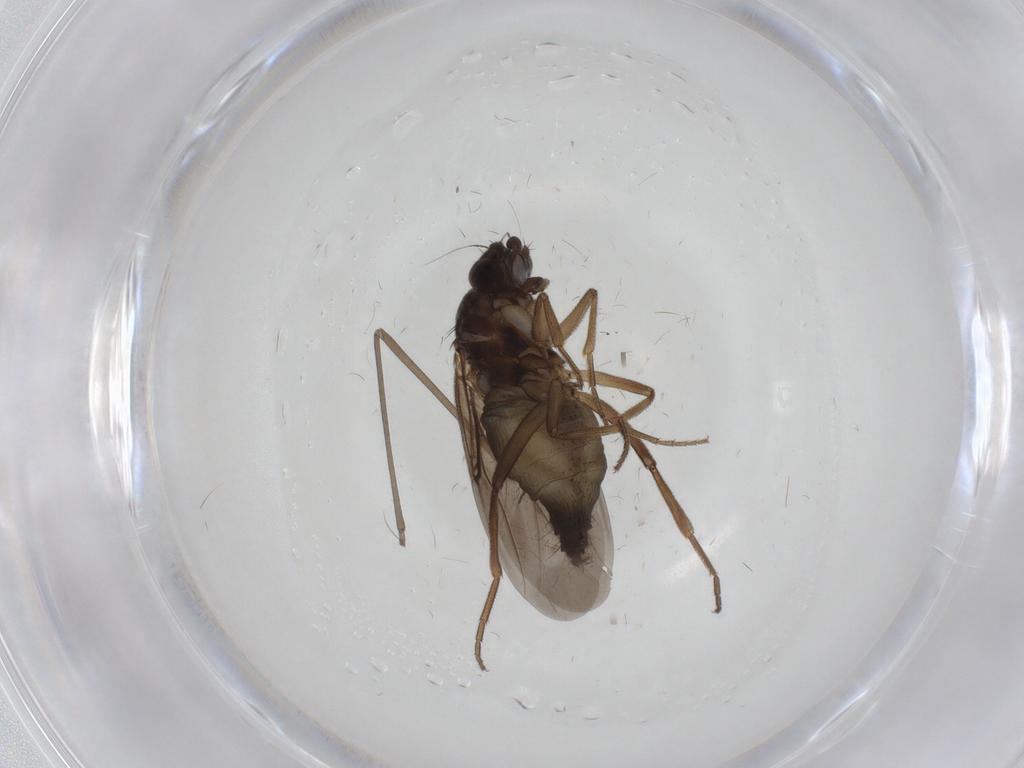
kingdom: Animalia
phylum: Arthropoda
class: Insecta
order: Diptera
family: Phoridae
